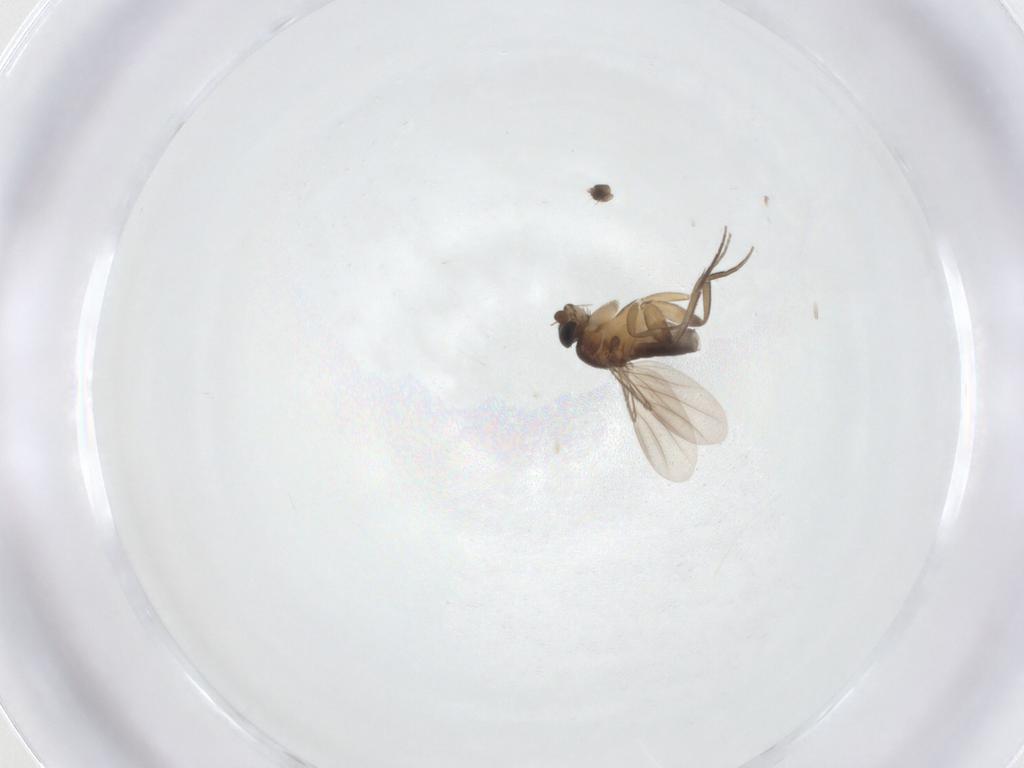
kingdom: Animalia
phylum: Arthropoda
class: Insecta
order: Diptera
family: Phoridae
